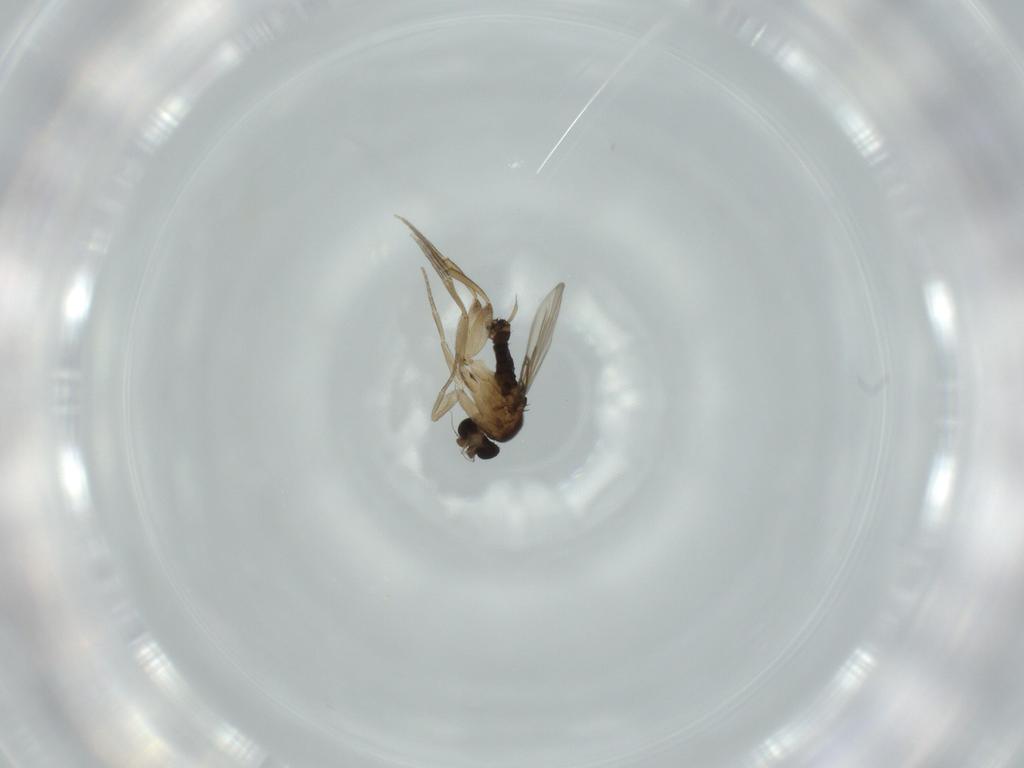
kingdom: Animalia
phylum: Arthropoda
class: Insecta
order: Diptera
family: Phoridae
